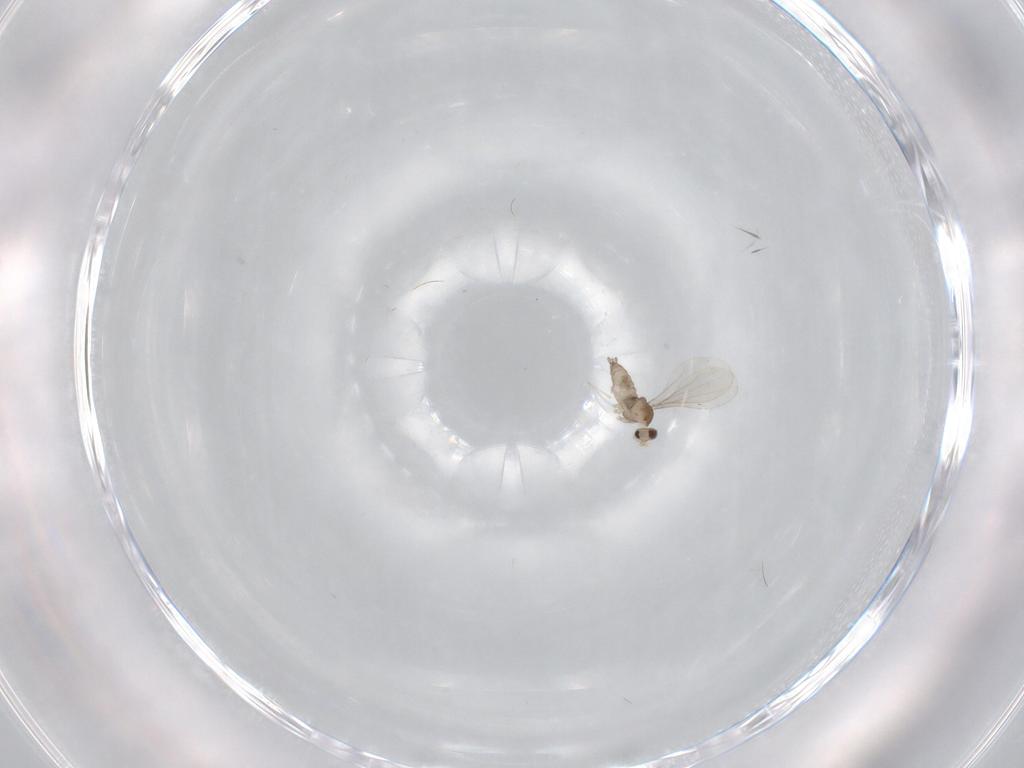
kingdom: Animalia
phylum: Arthropoda
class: Insecta
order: Diptera
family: Cecidomyiidae
